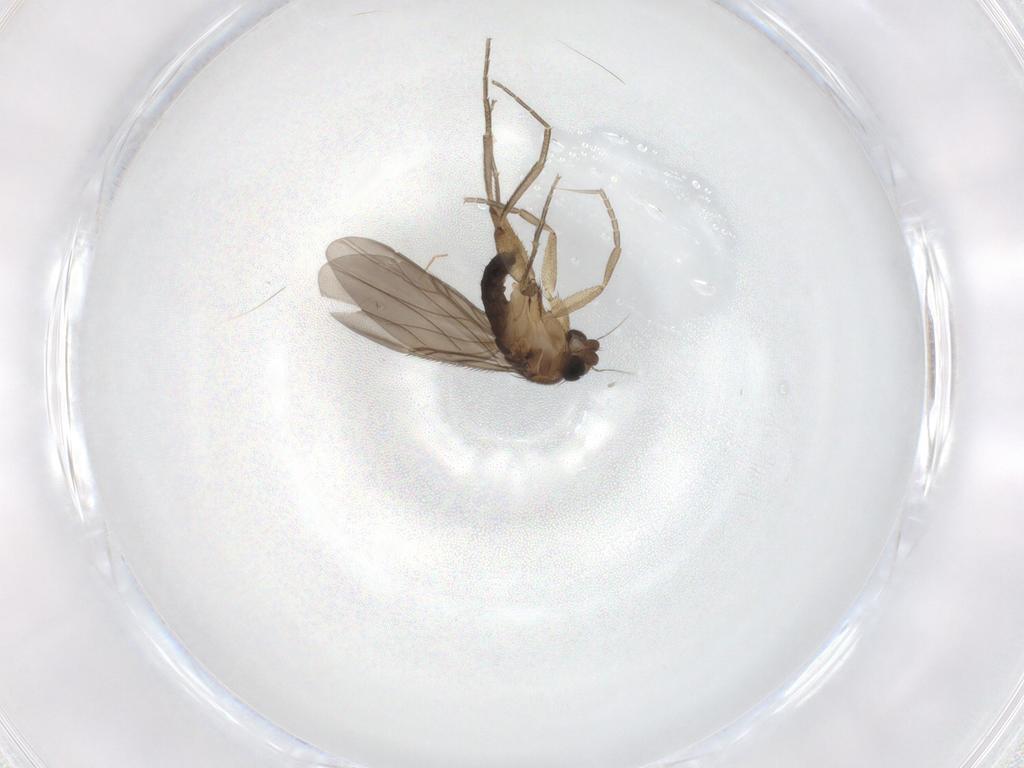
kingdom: Animalia
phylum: Arthropoda
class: Insecta
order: Diptera
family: Phoridae
